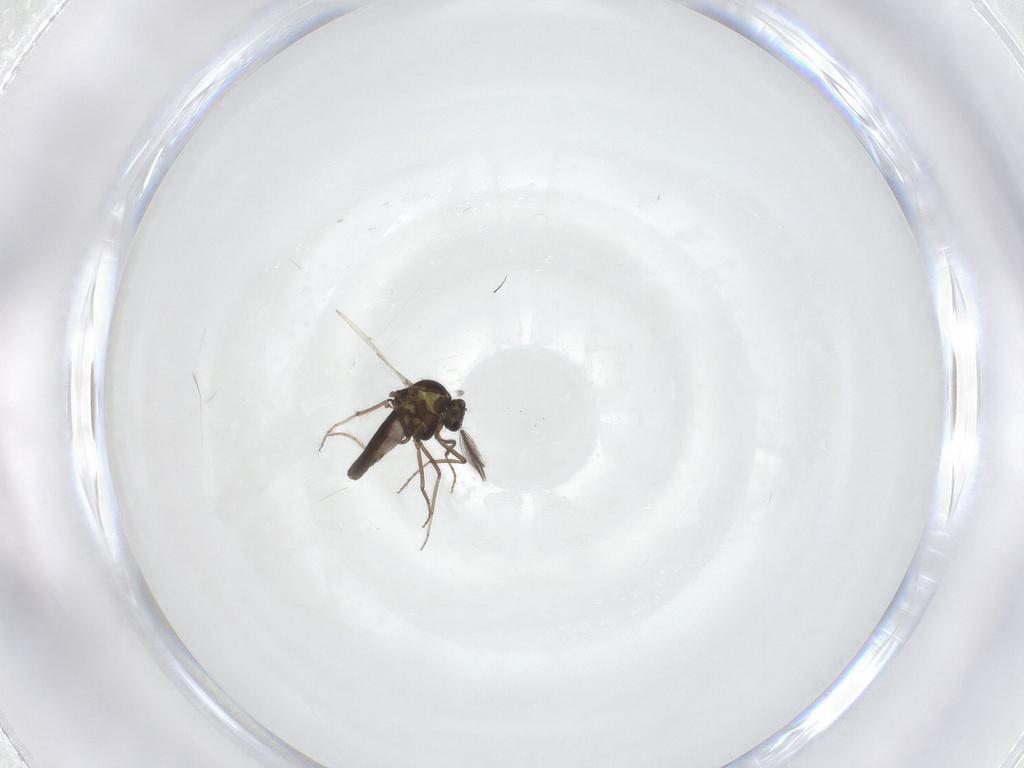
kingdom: Animalia
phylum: Arthropoda
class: Insecta
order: Diptera
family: Ceratopogonidae
